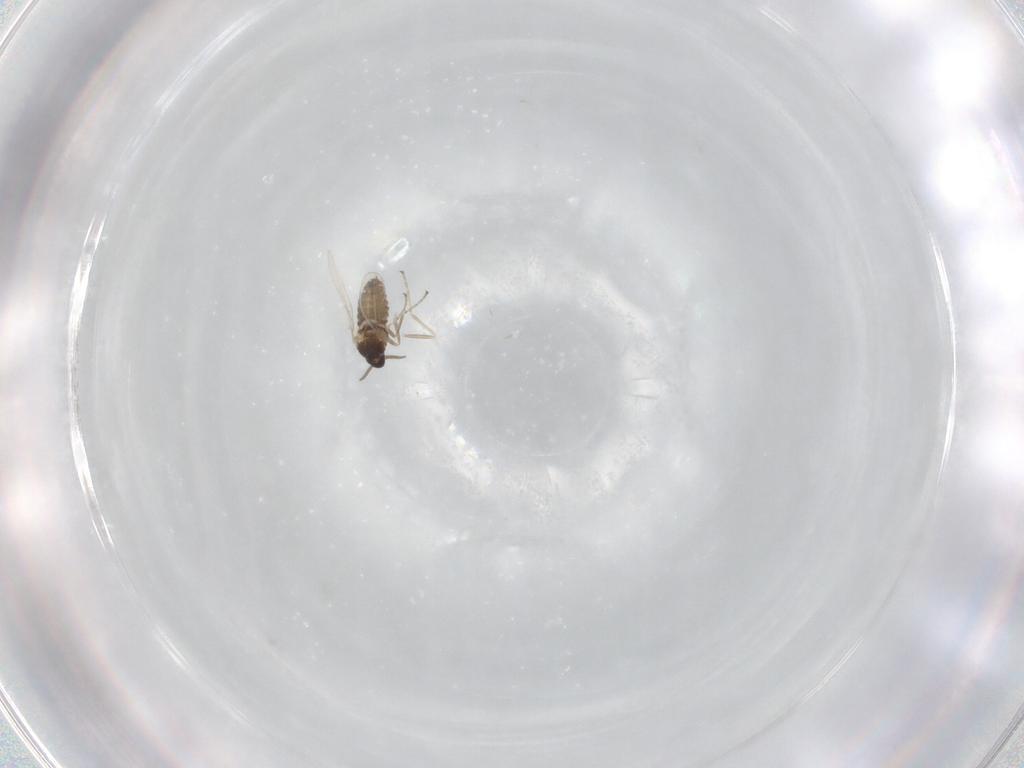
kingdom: Animalia
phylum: Arthropoda
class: Insecta
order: Diptera
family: Cecidomyiidae
